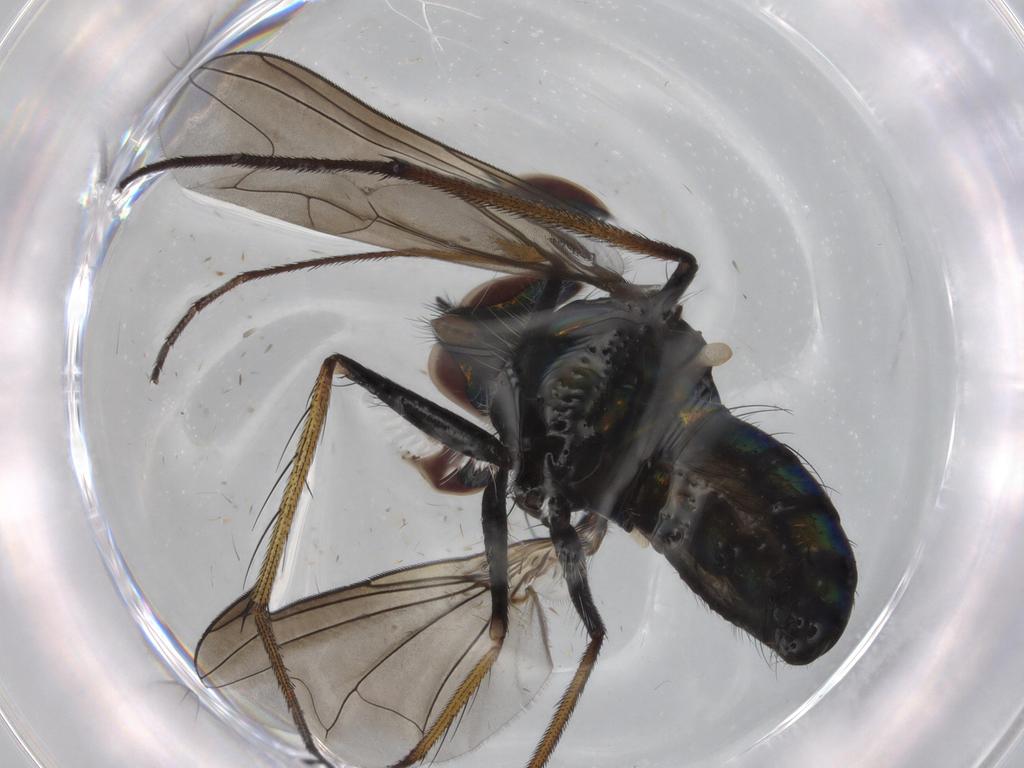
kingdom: Animalia
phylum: Arthropoda
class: Insecta
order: Diptera
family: Dolichopodidae
